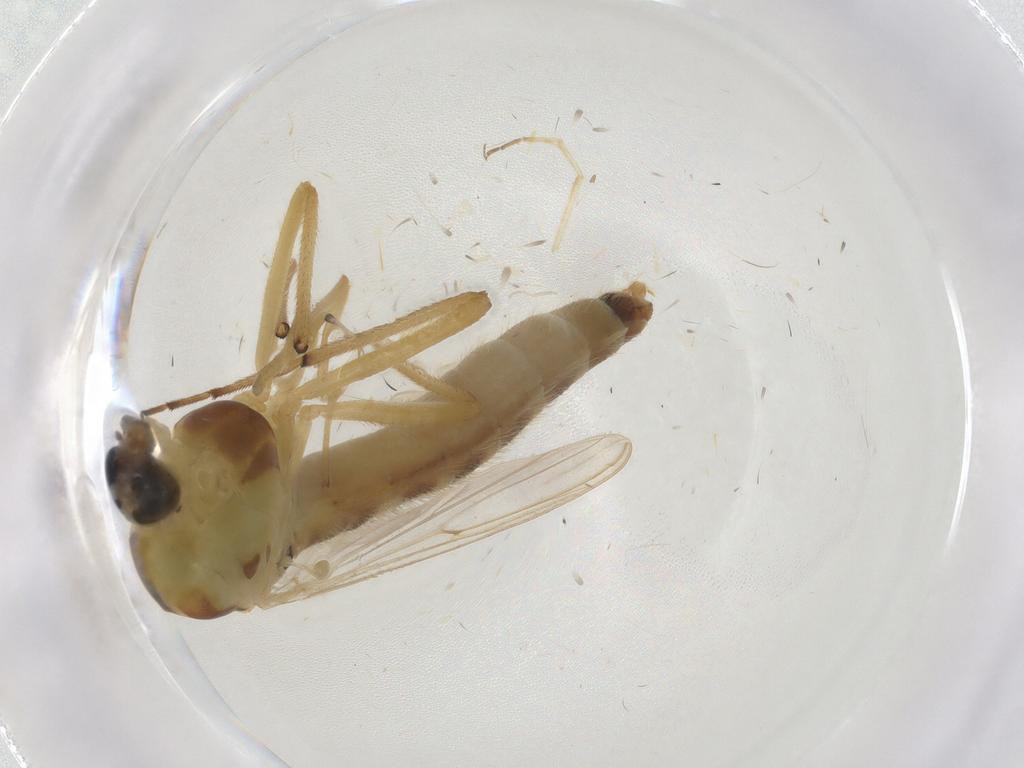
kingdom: Animalia
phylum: Arthropoda
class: Insecta
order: Diptera
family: Chironomidae
